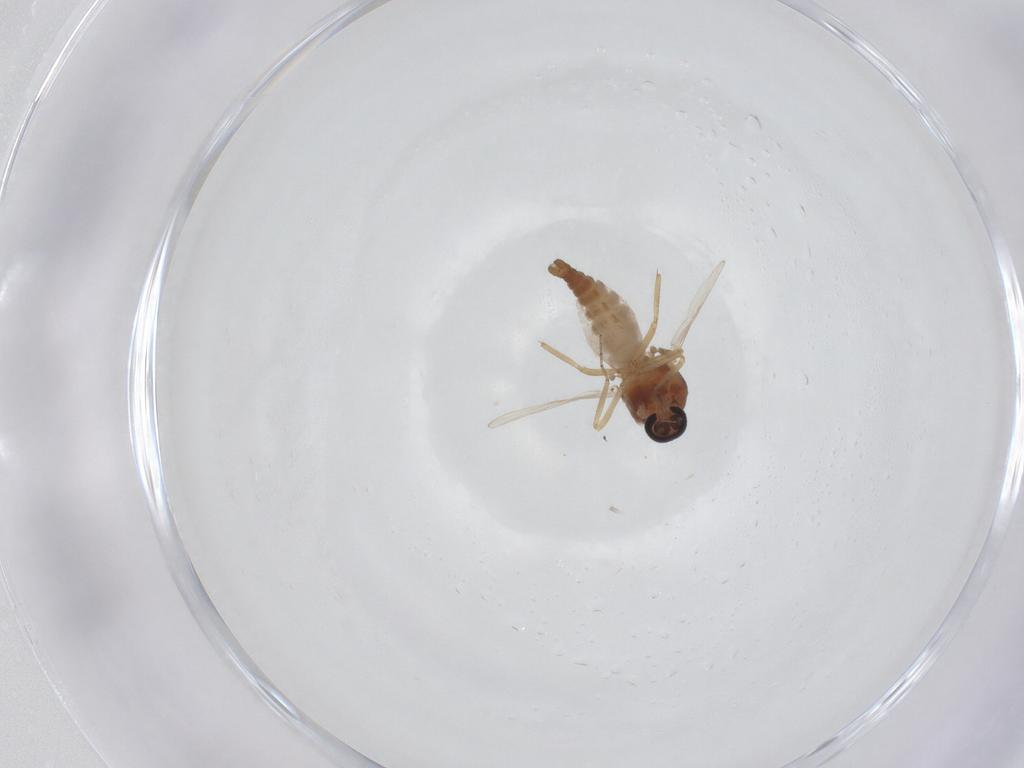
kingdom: Animalia
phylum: Arthropoda
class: Insecta
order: Diptera
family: Ceratopogonidae
